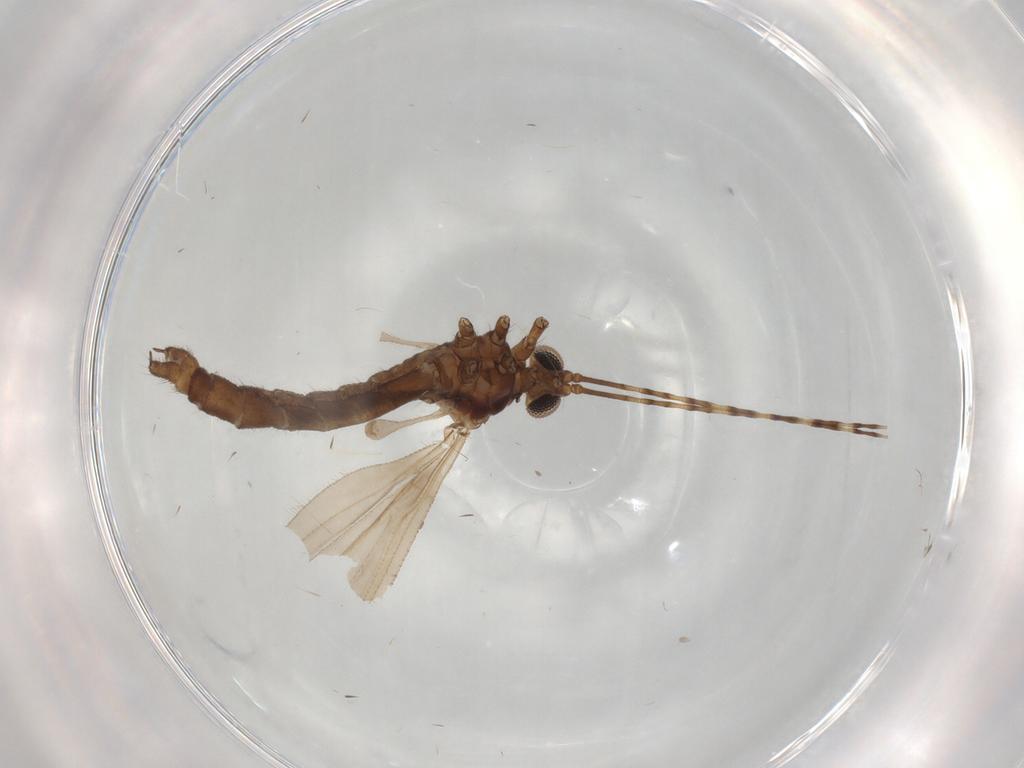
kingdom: Animalia
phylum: Arthropoda
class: Insecta
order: Diptera
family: Limoniidae
